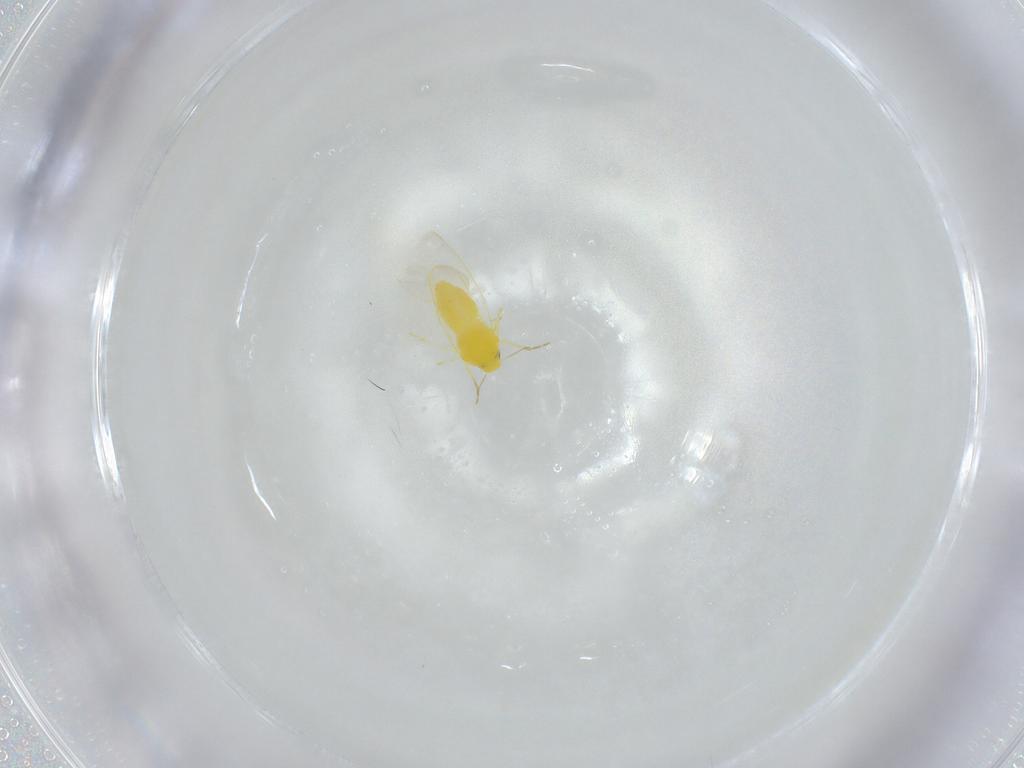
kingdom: Animalia
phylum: Arthropoda
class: Insecta
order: Hemiptera
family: Aleyrodidae
